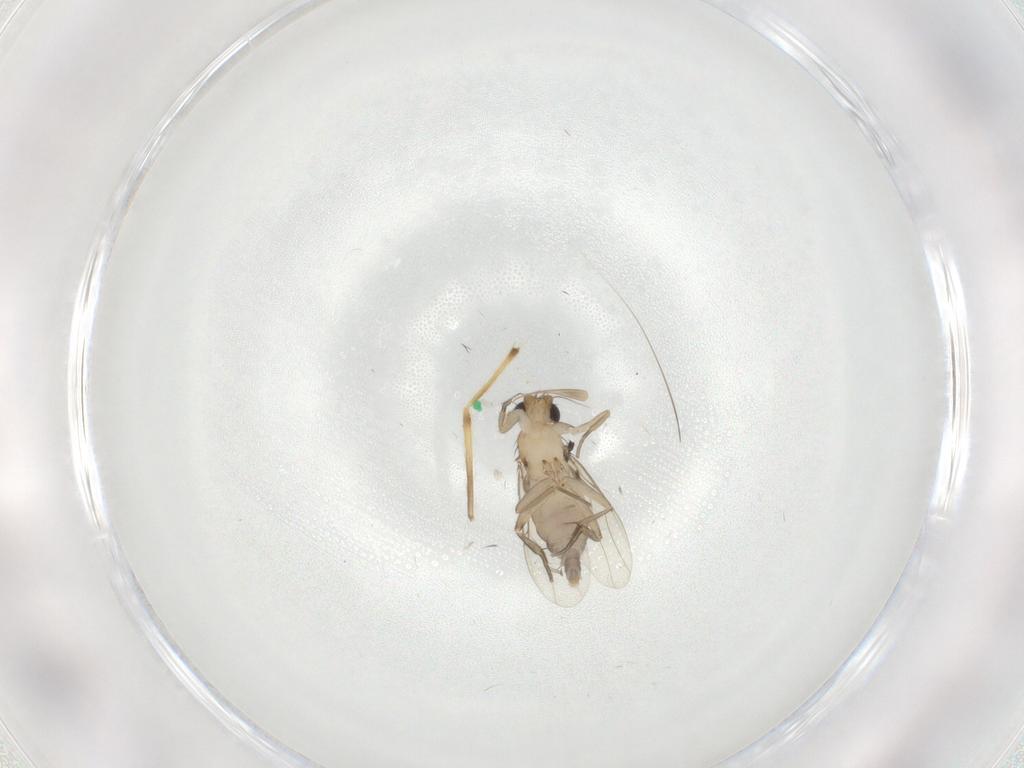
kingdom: Animalia
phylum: Arthropoda
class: Insecta
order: Diptera
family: Phoridae
